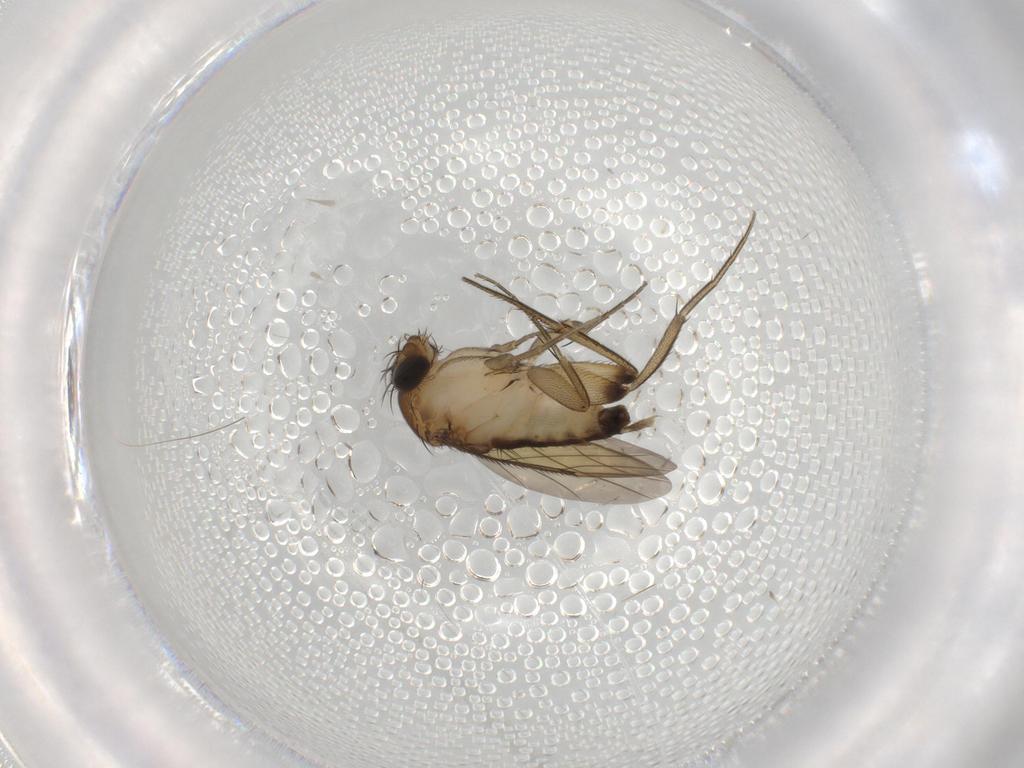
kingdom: Animalia
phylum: Arthropoda
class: Insecta
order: Diptera
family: Phoridae
